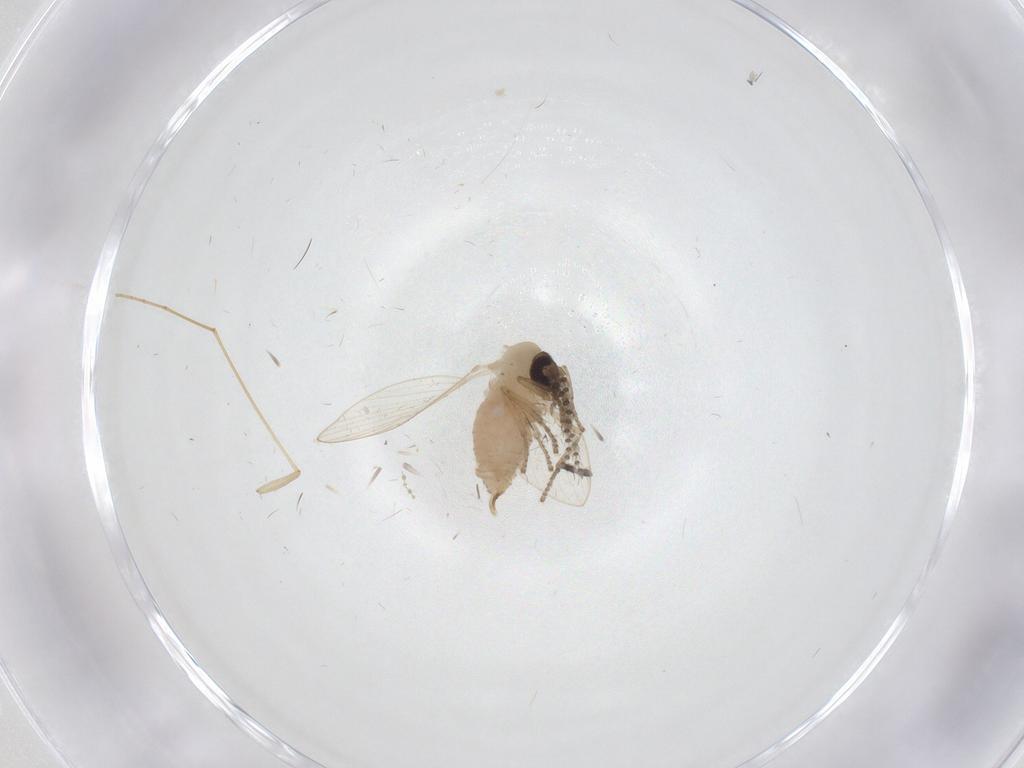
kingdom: Animalia
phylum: Arthropoda
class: Insecta
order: Diptera
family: Psychodidae
